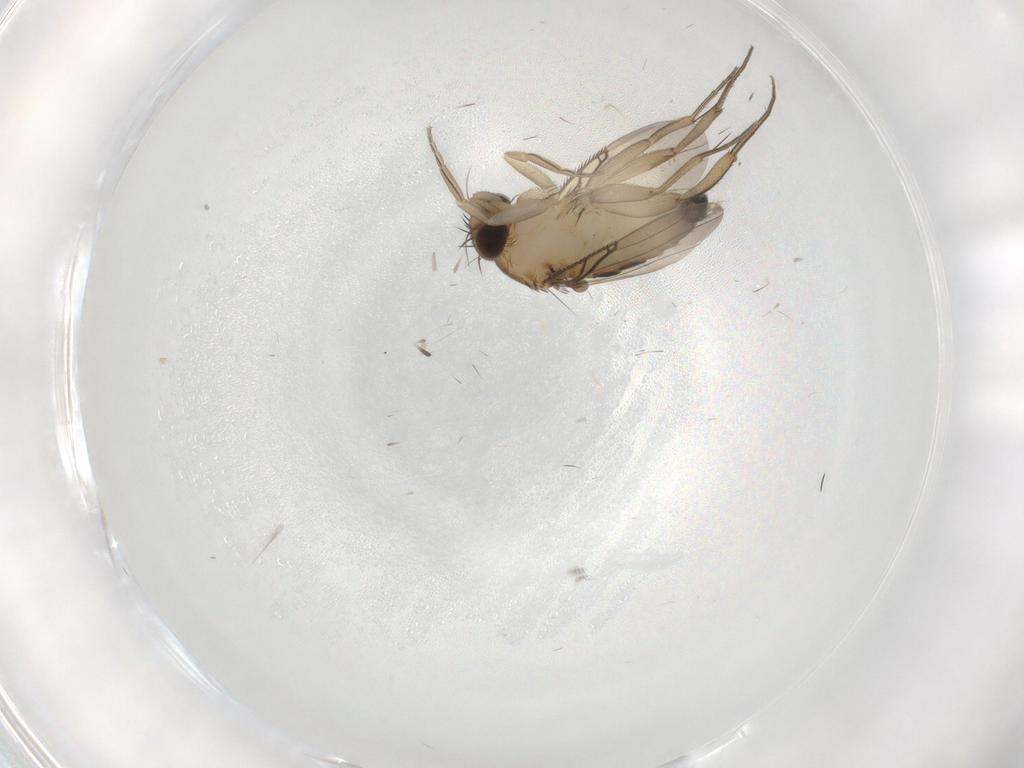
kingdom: Animalia
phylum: Arthropoda
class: Insecta
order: Diptera
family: Phoridae
